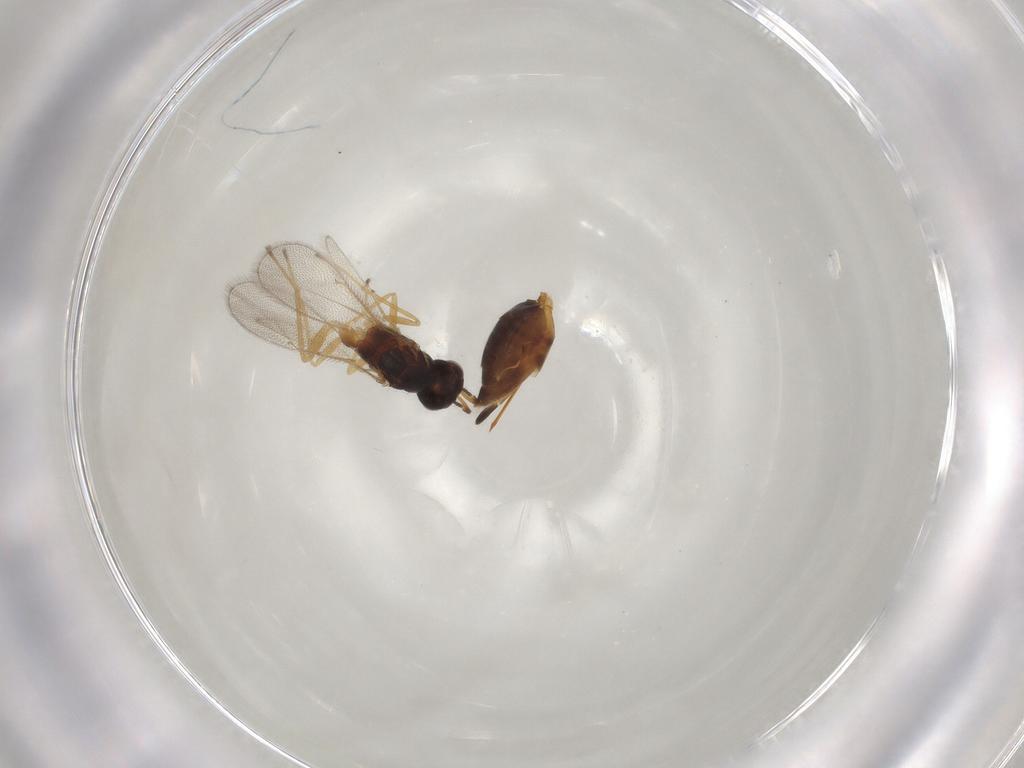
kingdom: Animalia
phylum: Arthropoda
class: Insecta
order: Hymenoptera
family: Eulophidae
